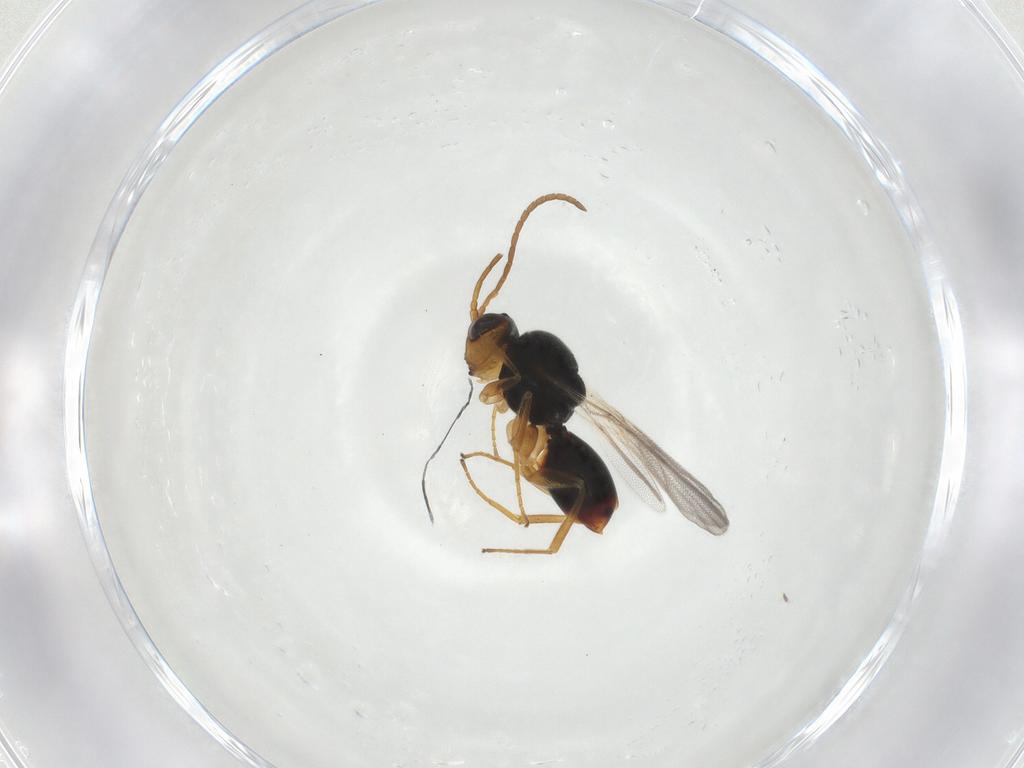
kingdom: Animalia
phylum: Arthropoda
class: Insecta
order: Hymenoptera
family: Cynipidae
